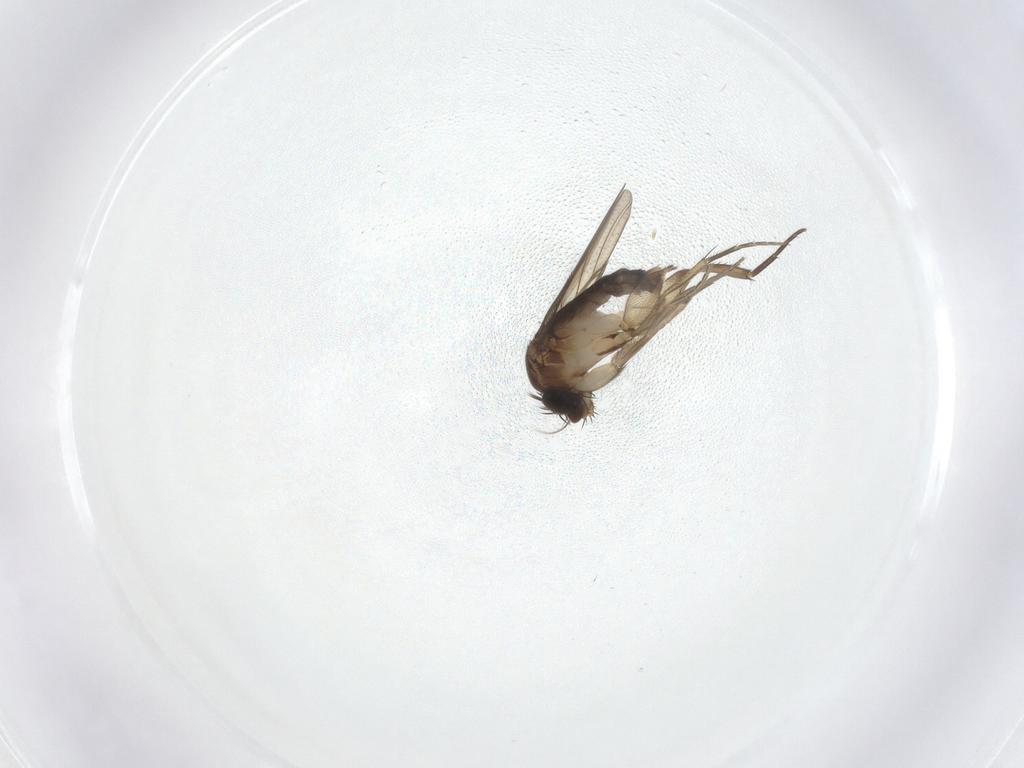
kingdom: Animalia
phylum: Arthropoda
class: Insecta
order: Diptera
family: Phoridae
